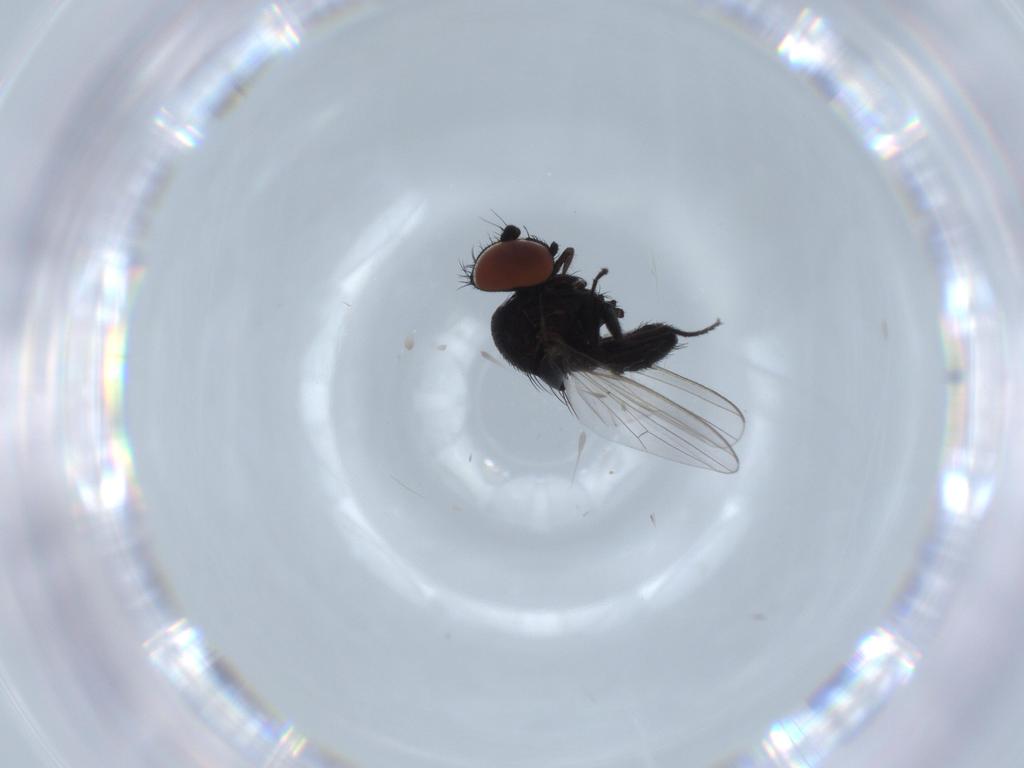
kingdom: Animalia
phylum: Arthropoda
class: Insecta
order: Diptera
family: Milichiidae
